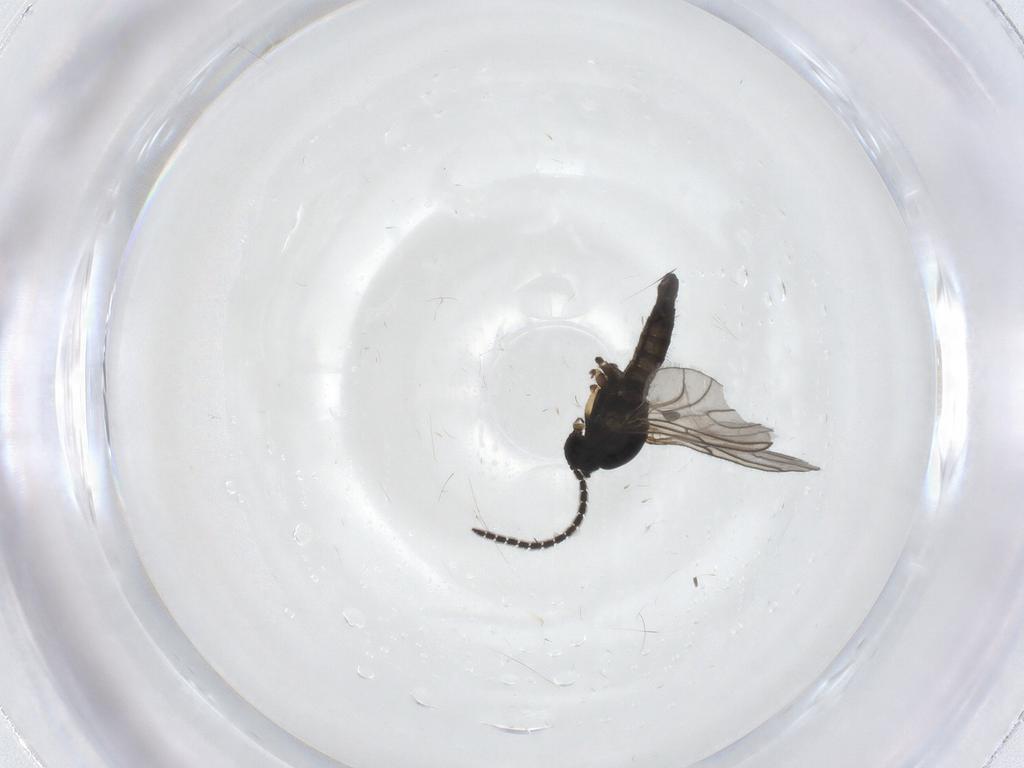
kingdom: Animalia
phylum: Arthropoda
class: Insecta
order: Diptera
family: Sciaridae
